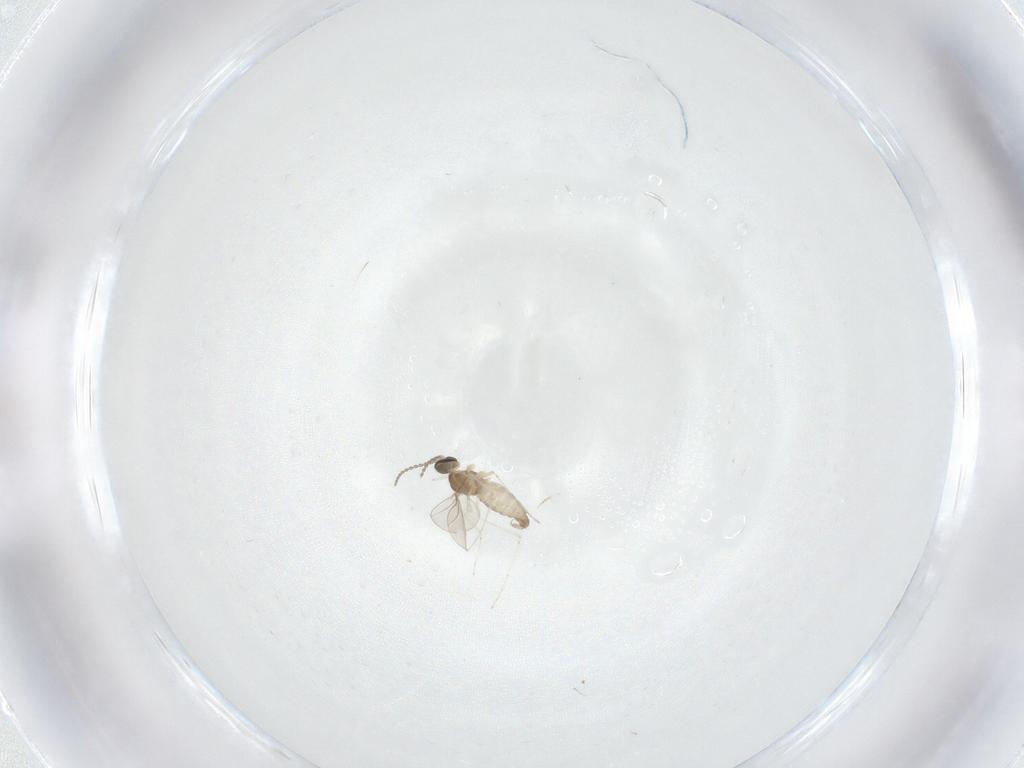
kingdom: Animalia
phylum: Arthropoda
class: Insecta
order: Diptera
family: Cecidomyiidae
